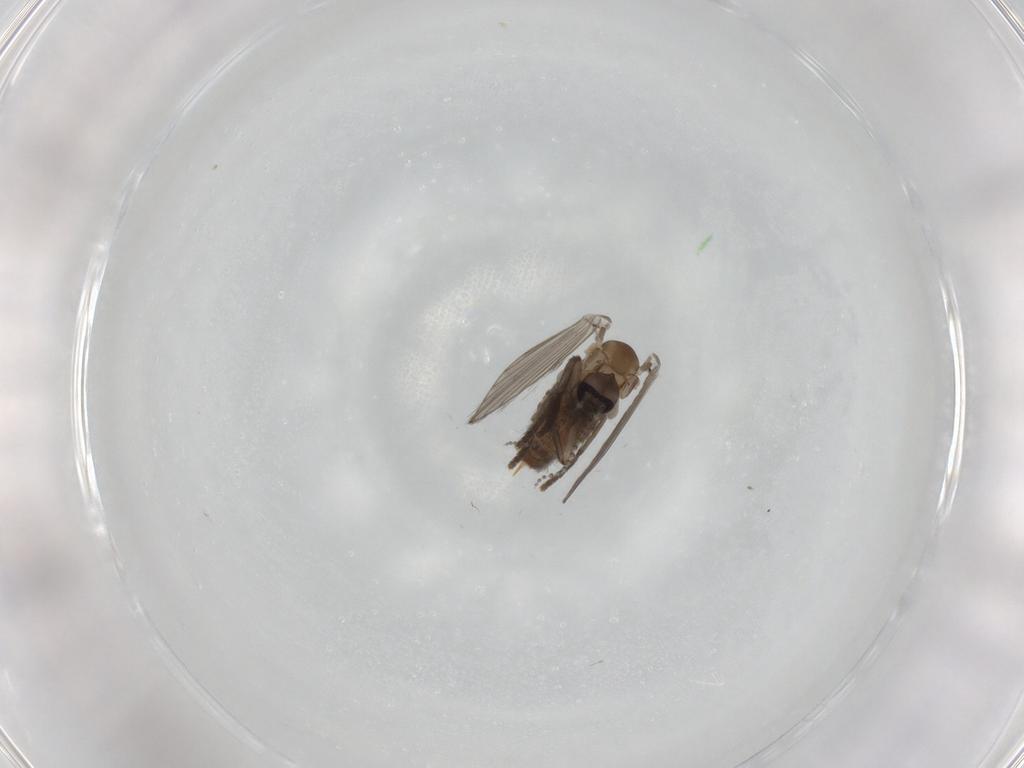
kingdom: Animalia
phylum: Arthropoda
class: Insecta
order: Diptera
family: Psychodidae
